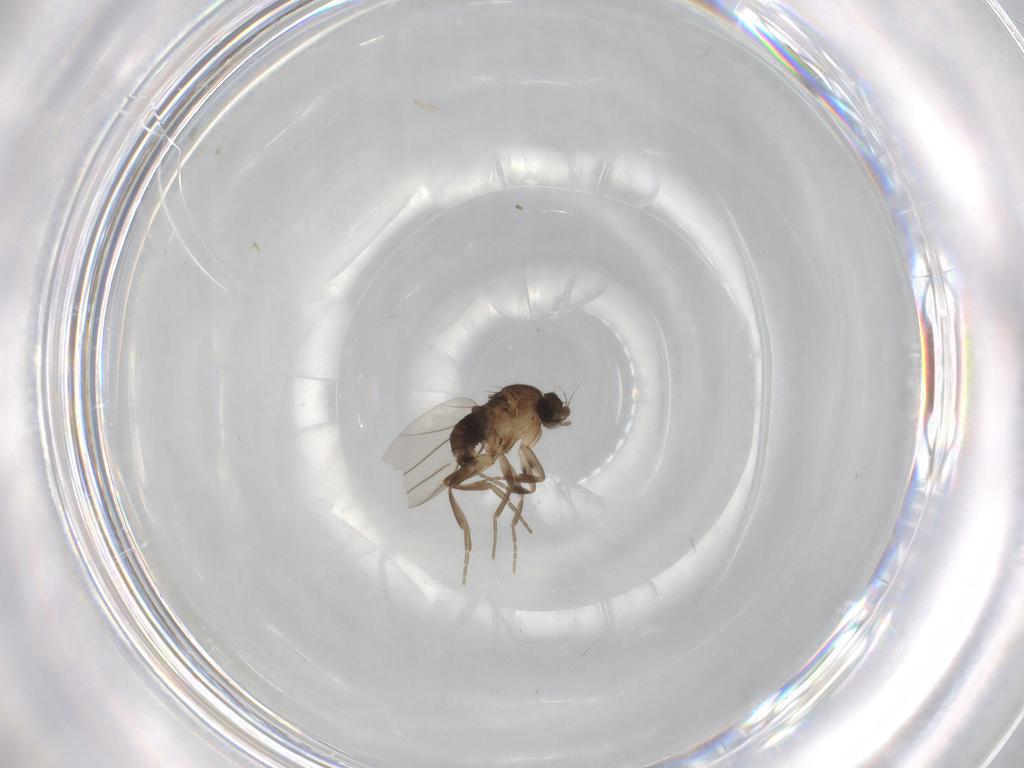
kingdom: Animalia
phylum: Arthropoda
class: Insecta
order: Diptera
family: Phoridae
